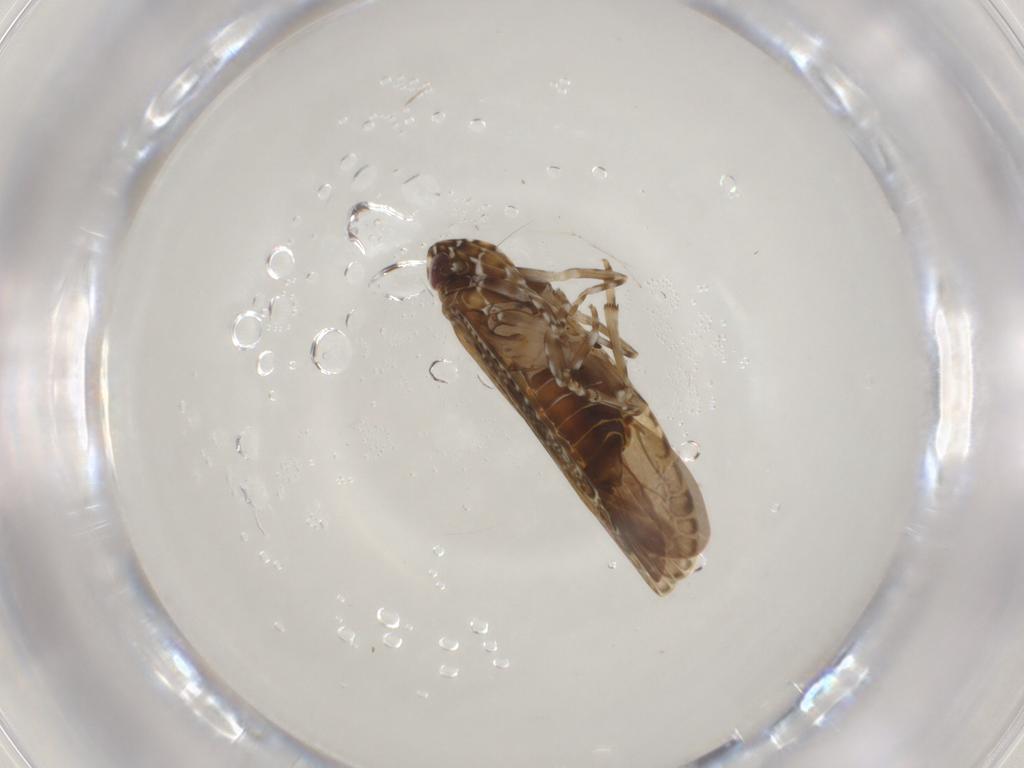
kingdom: Animalia
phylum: Arthropoda
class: Insecta
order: Hemiptera
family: Achilidae
